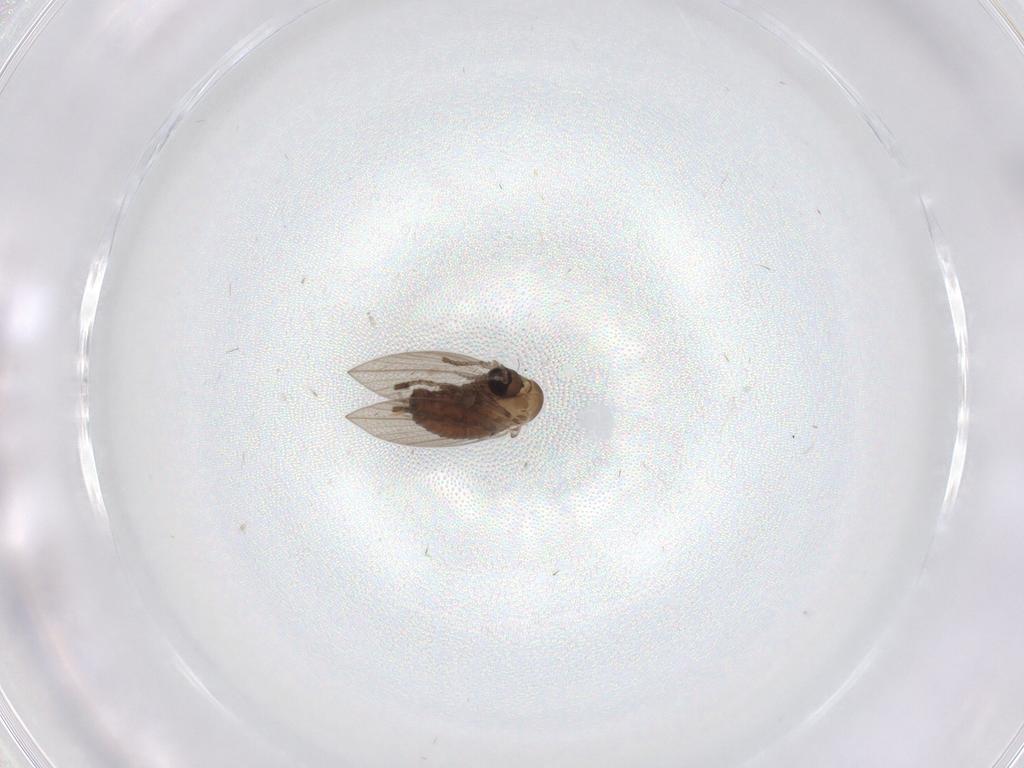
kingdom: Animalia
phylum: Arthropoda
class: Insecta
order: Diptera
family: Psychodidae
